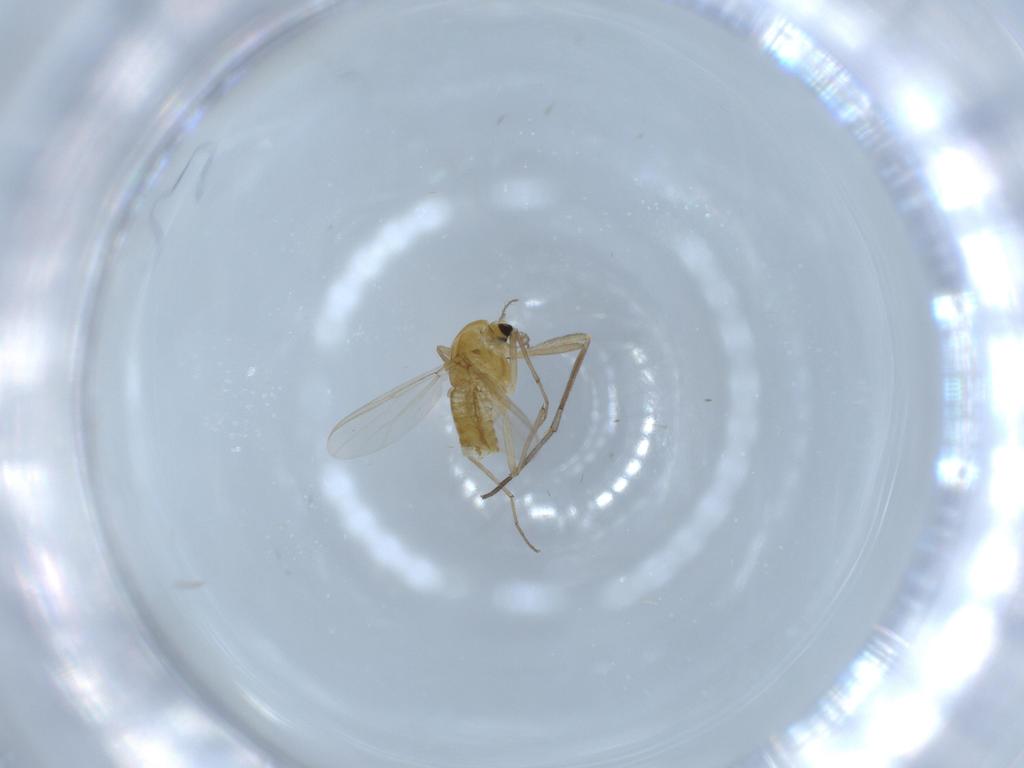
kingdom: Animalia
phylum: Arthropoda
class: Insecta
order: Diptera
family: Chironomidae
